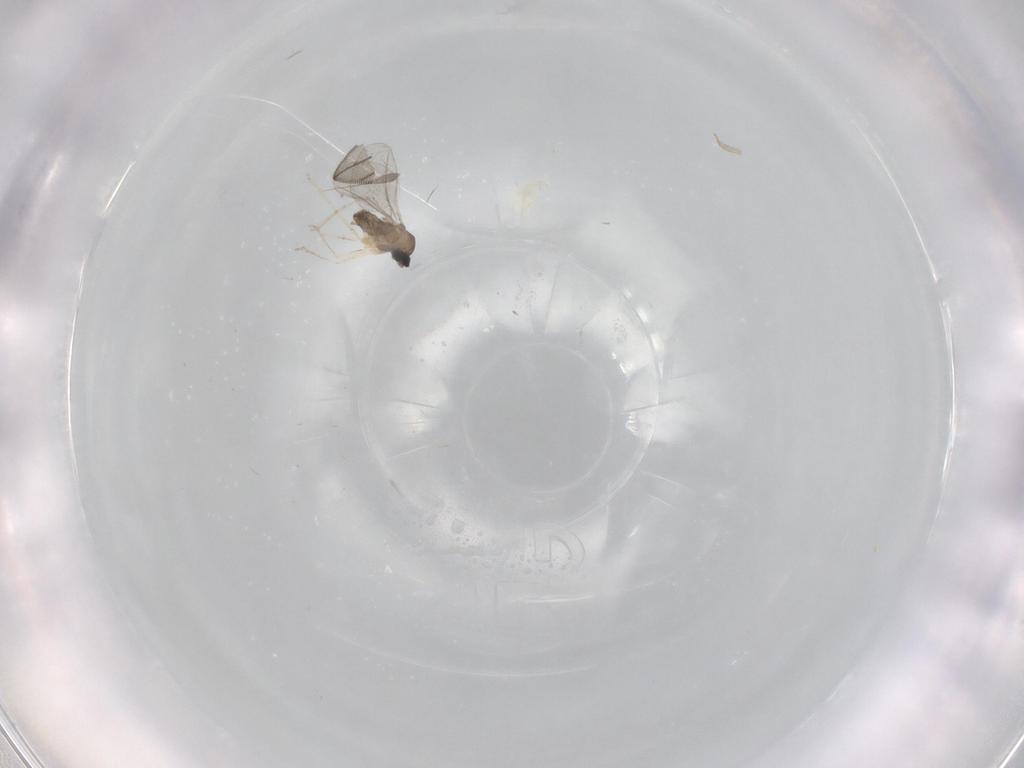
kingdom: Animalia
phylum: Arthropoda
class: Insecta
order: Diptera
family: Cecidomyiidae
